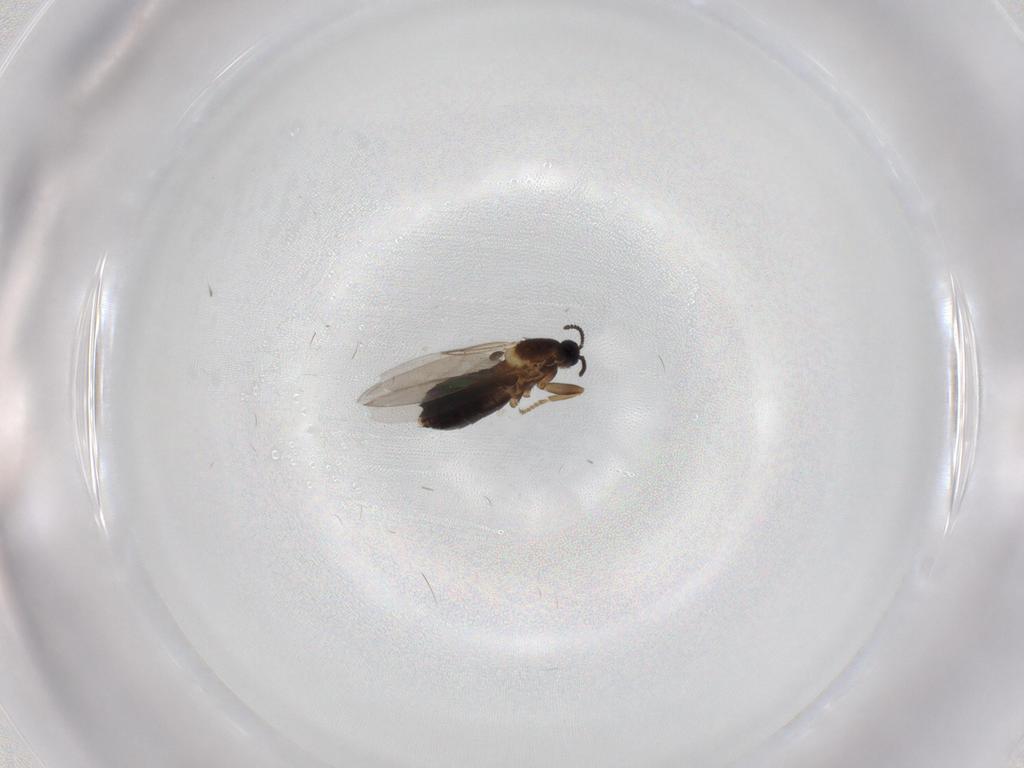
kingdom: Animalia
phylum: Arthropoda
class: Insecta
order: Diptera
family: Scatopsidae
